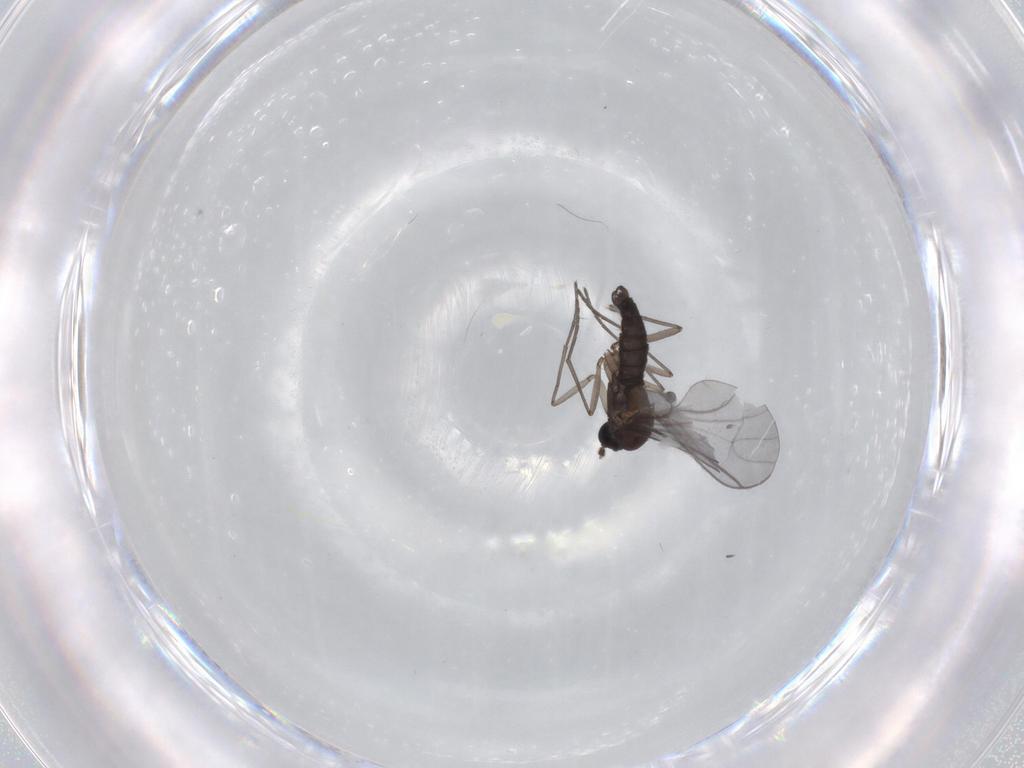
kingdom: Animalia
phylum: Arthropoda
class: Insecta
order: Diptera
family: Sciaridae
